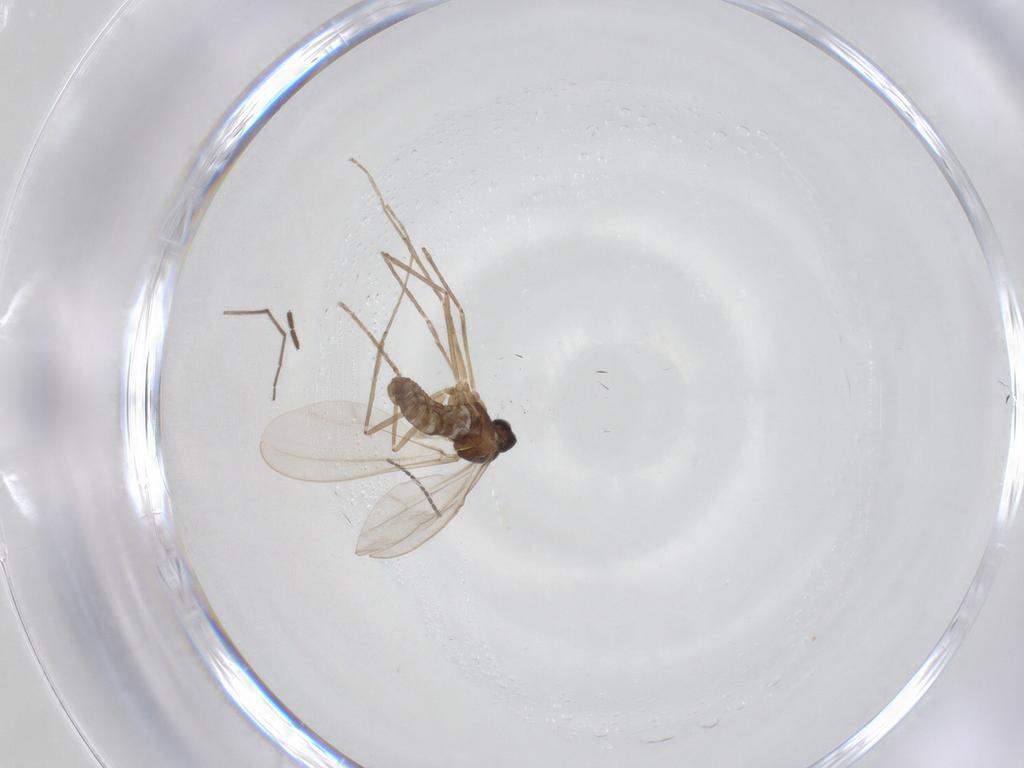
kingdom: Animalia
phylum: Arthropoda
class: Insecta
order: Diptera
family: Cecidomyiidae
